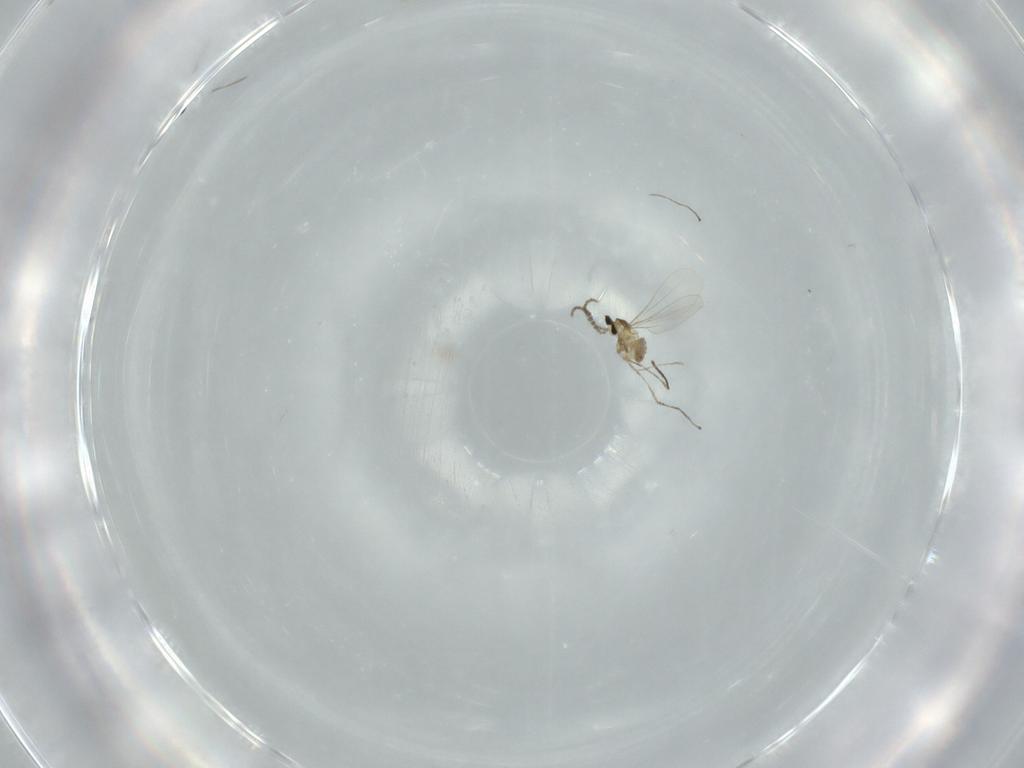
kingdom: Animalia
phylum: Arthropoda
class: Insecta
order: Diptera
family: Cecidomyiidae
